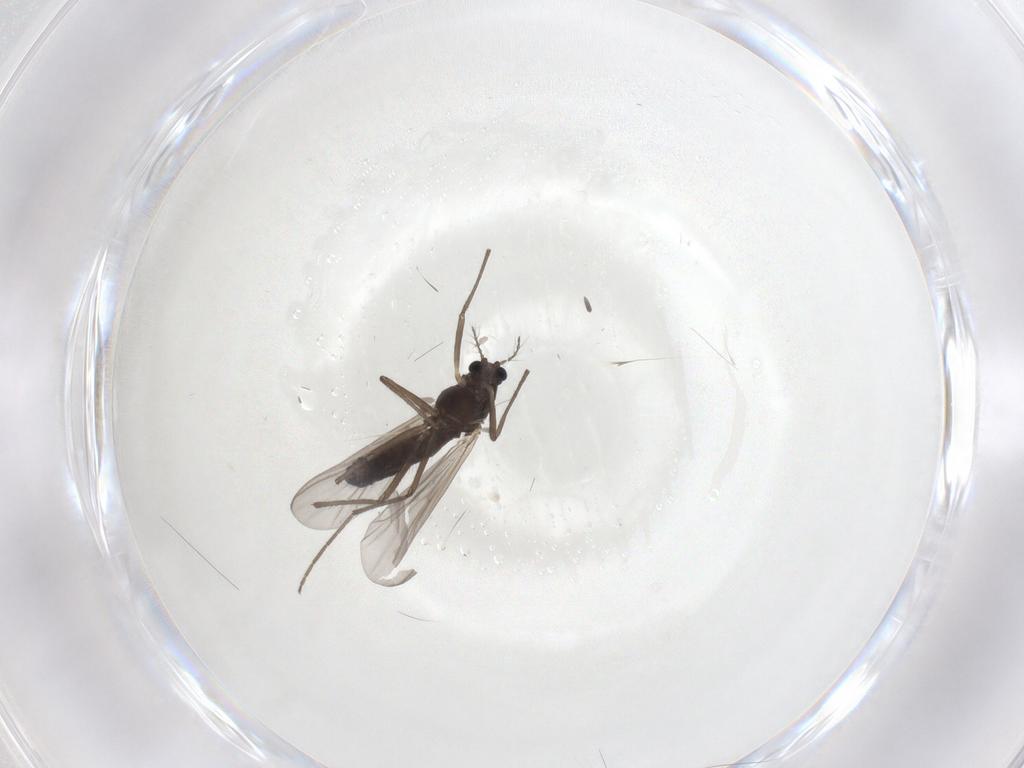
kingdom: Animalia
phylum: Arthropoda
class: Insecta
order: Diptera
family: Chironomidae
